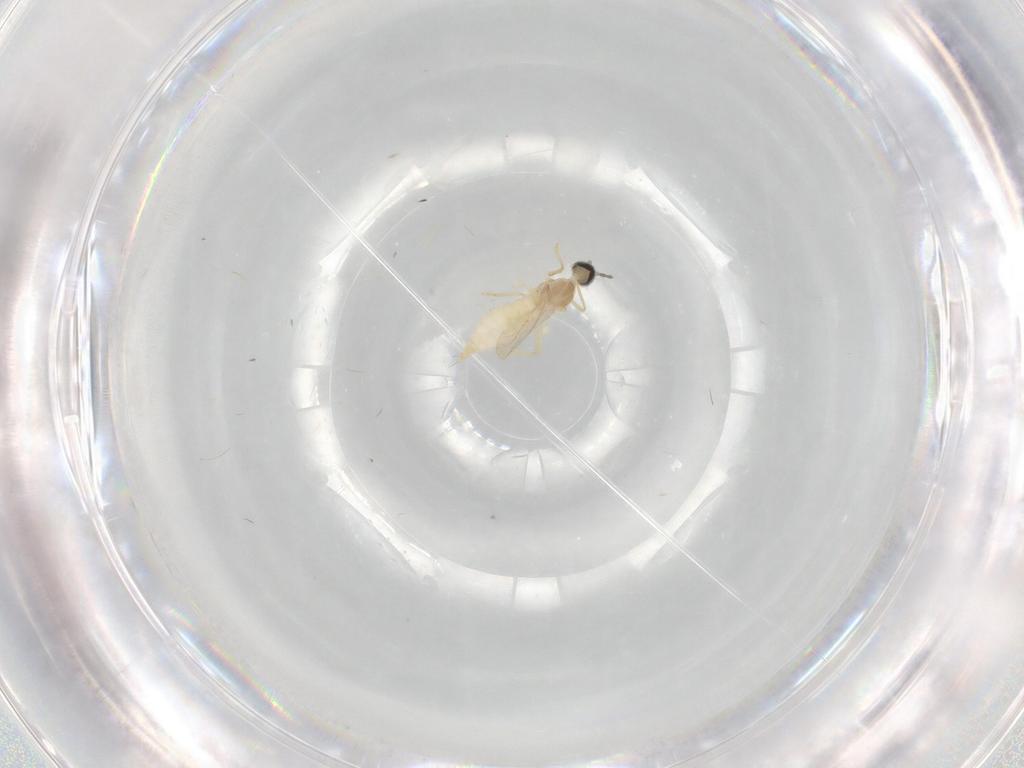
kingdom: Animalia
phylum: Arthropoda
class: Insecta
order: Diptera
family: Cecidomyiidae
